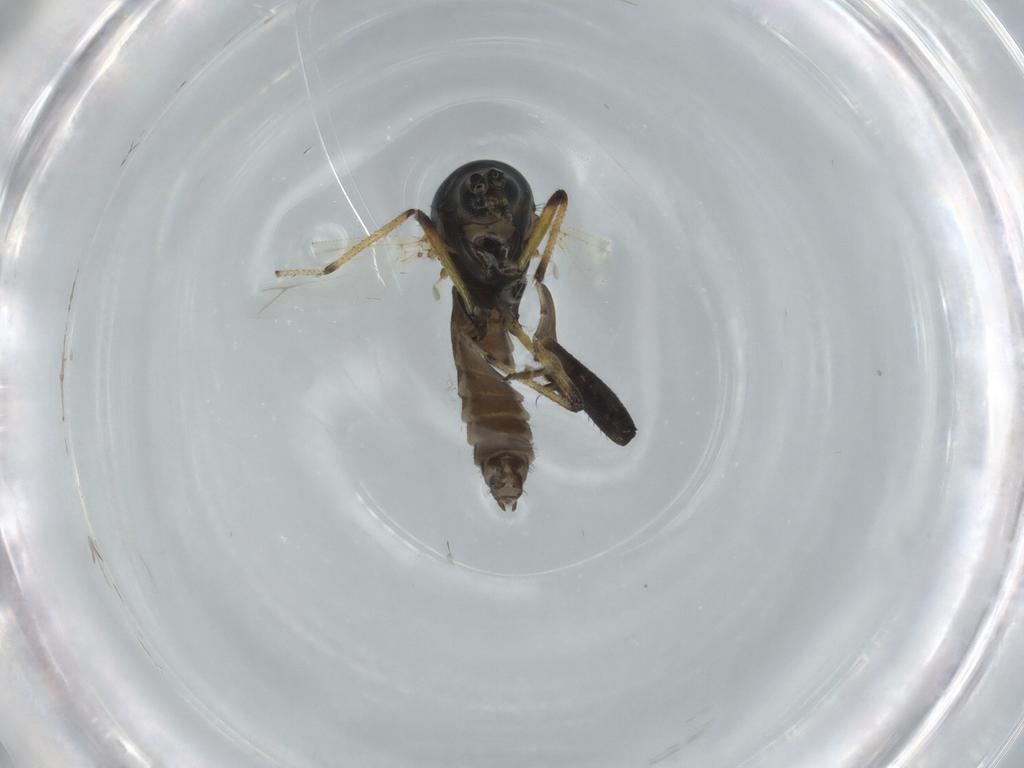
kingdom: Animalia
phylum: Arthropoda
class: Insecta
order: Diptera
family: Ceratopogonidae
